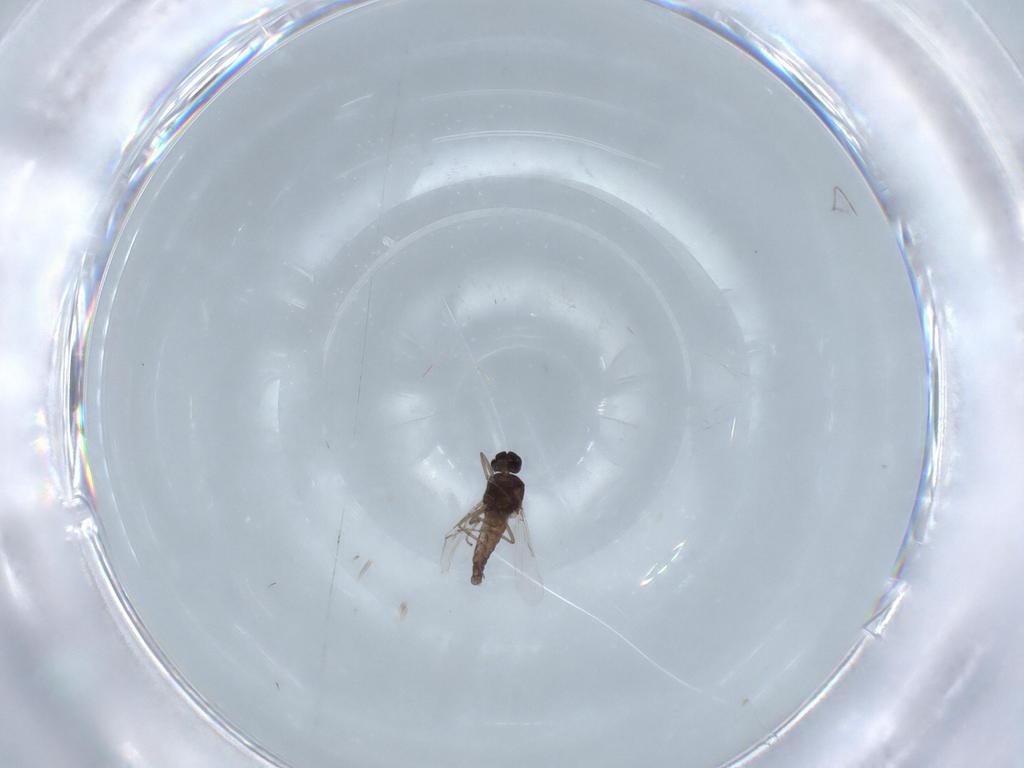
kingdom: Animalia
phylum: Arthropoda
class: Insecta
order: Diptera
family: Ceratopogonidae
